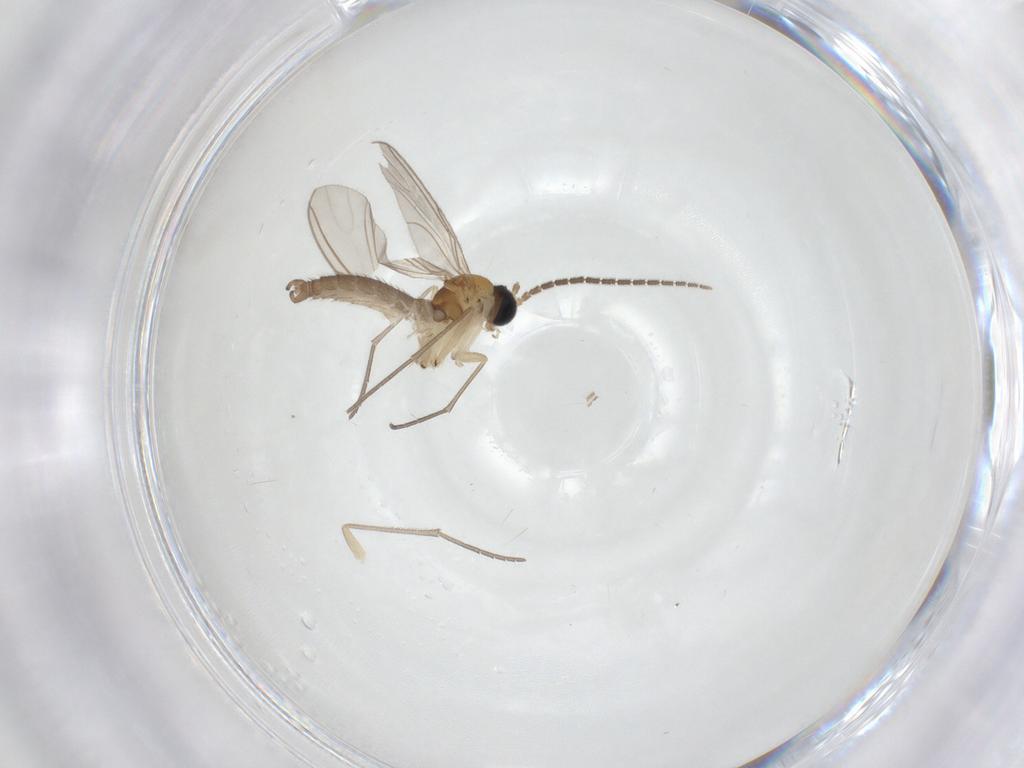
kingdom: Animalia
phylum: Arthropoda
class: Insecta
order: Diptera
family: Sciaridae
